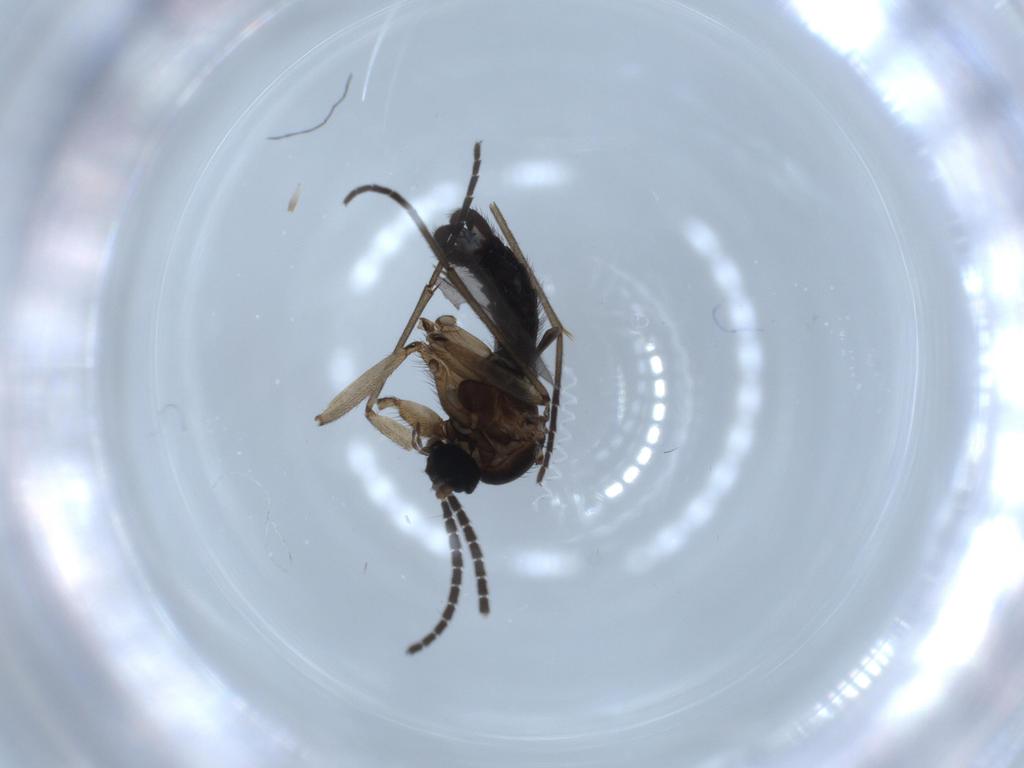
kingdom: Animalia
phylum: Arthropoda
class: Insecta
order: Diptera
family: Sciaridae
